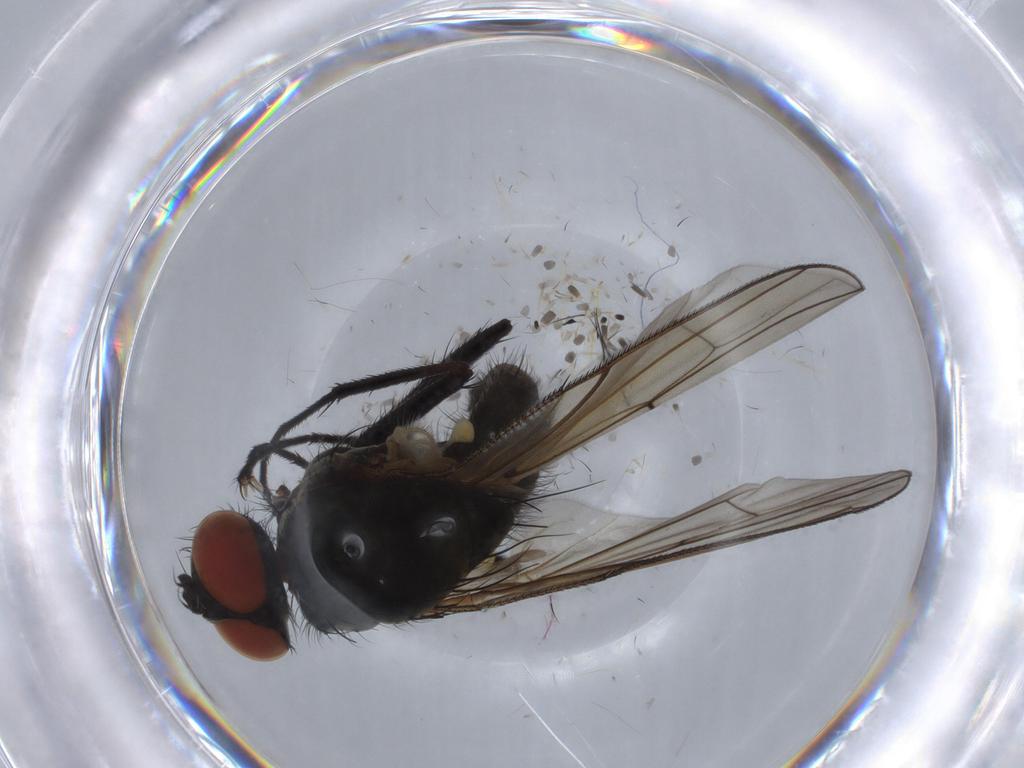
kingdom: Animalia
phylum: Arthropoda
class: Insecta
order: Diptera
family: Anthomyiidae
